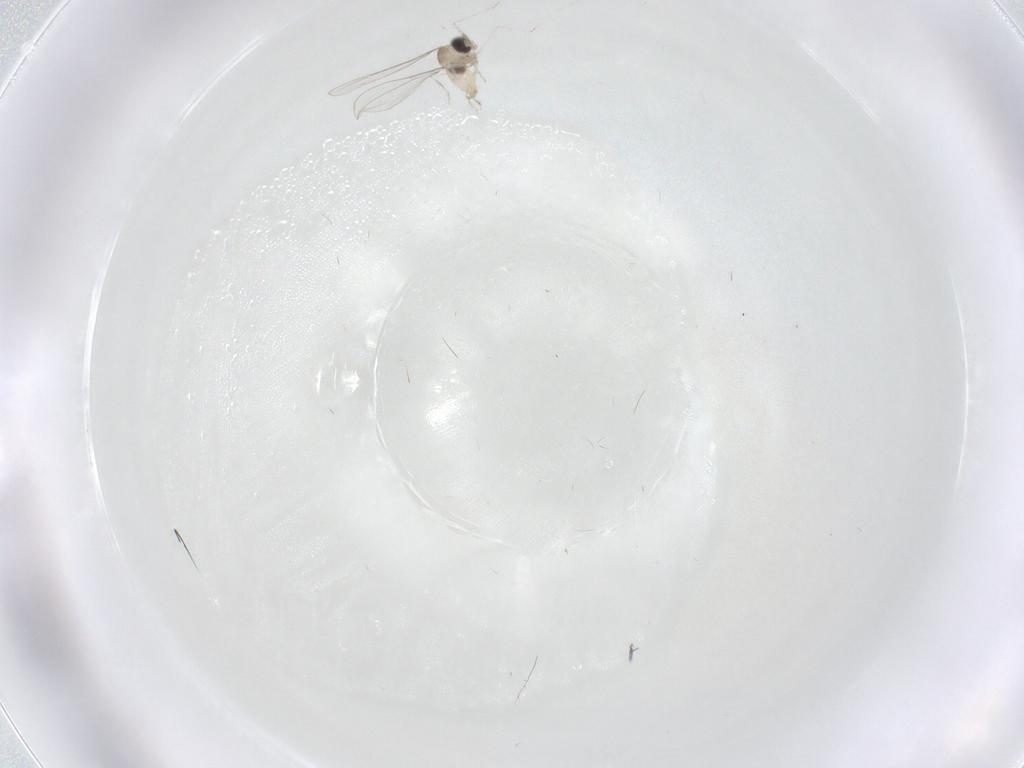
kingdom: Animalia
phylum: Arthropoda
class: Insecta
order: Diptera
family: Cecidomyiidae
